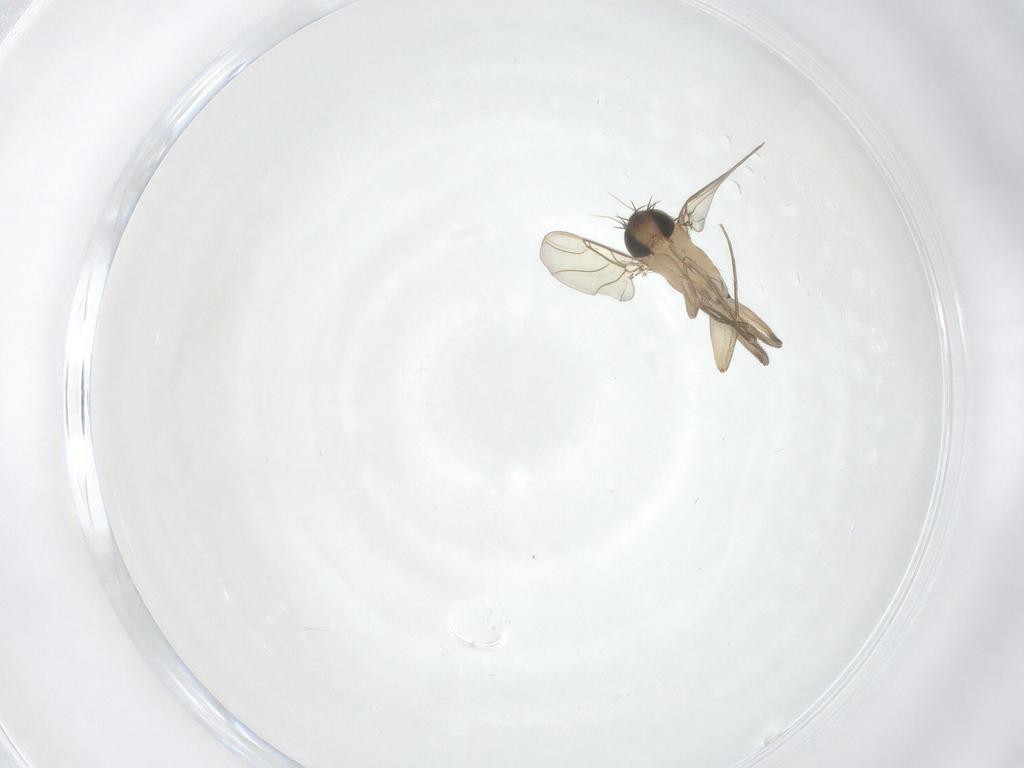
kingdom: Animalia
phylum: Arthropoda
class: Insecta
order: Diptera
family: Phoridae
